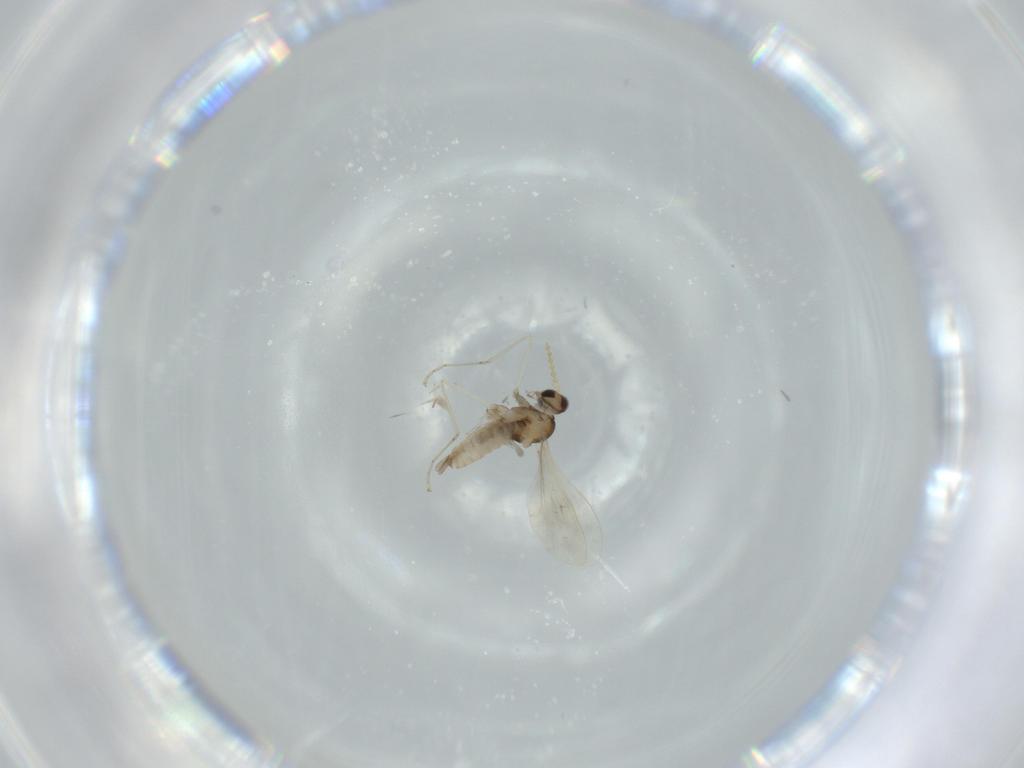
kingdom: Animalia
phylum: Arthropoda
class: Insecta
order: Diptera
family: Cecidomyiidae
